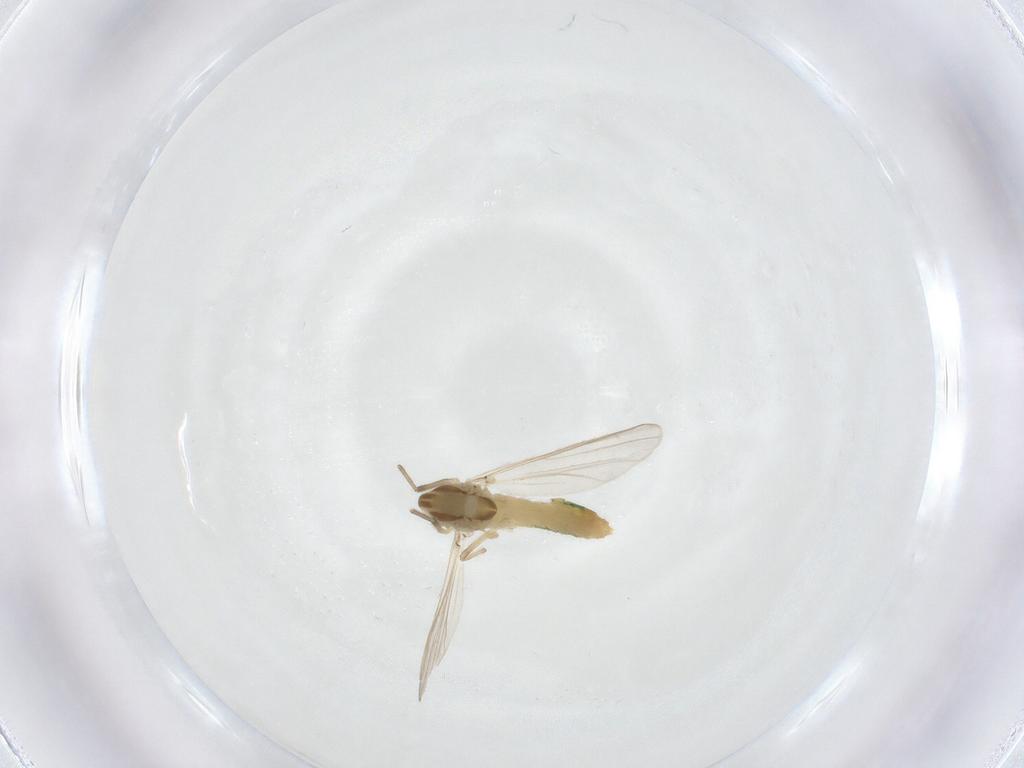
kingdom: Animalia
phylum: Arthropoda
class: Insecta
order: Diptera
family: Chironomidae
